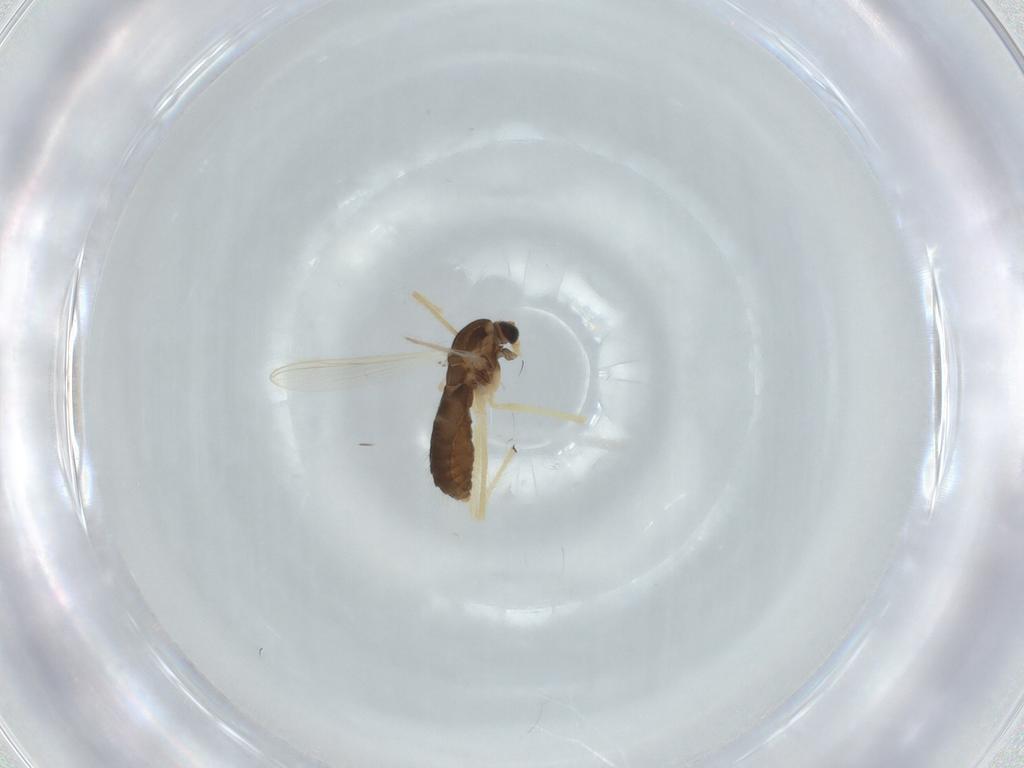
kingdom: Animalia
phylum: Arthropoda
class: Insecta
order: Diptera
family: Chironomidae
